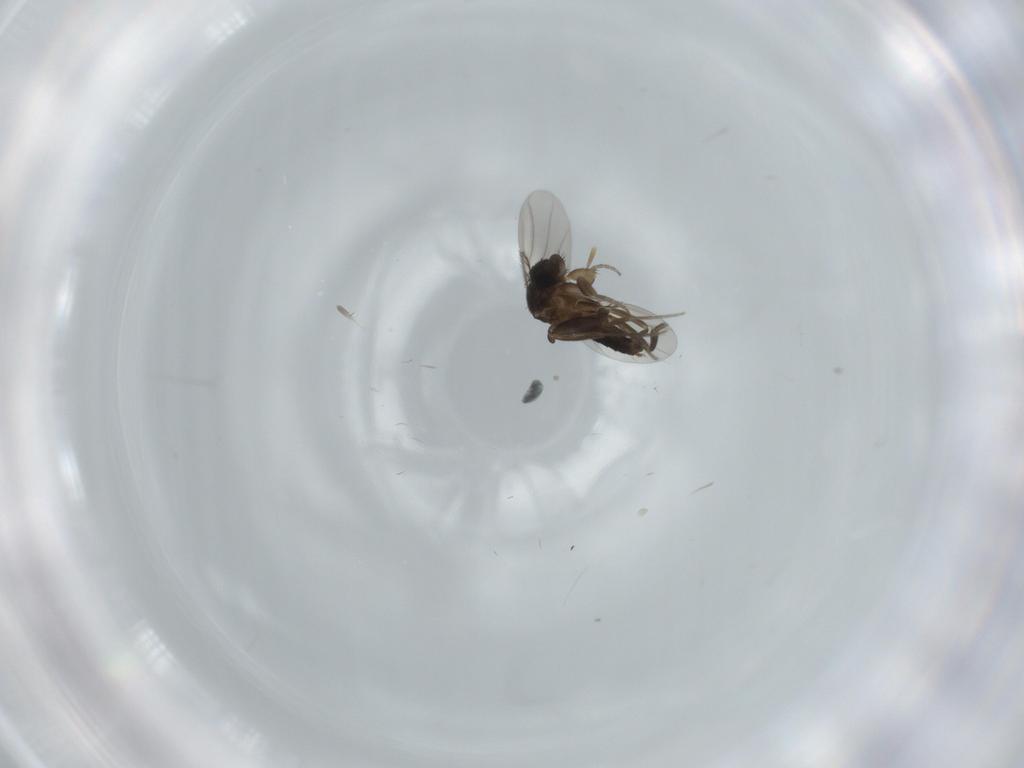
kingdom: Animalia
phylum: Arthropoda
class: Insecta
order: Diptera
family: Phoridae
